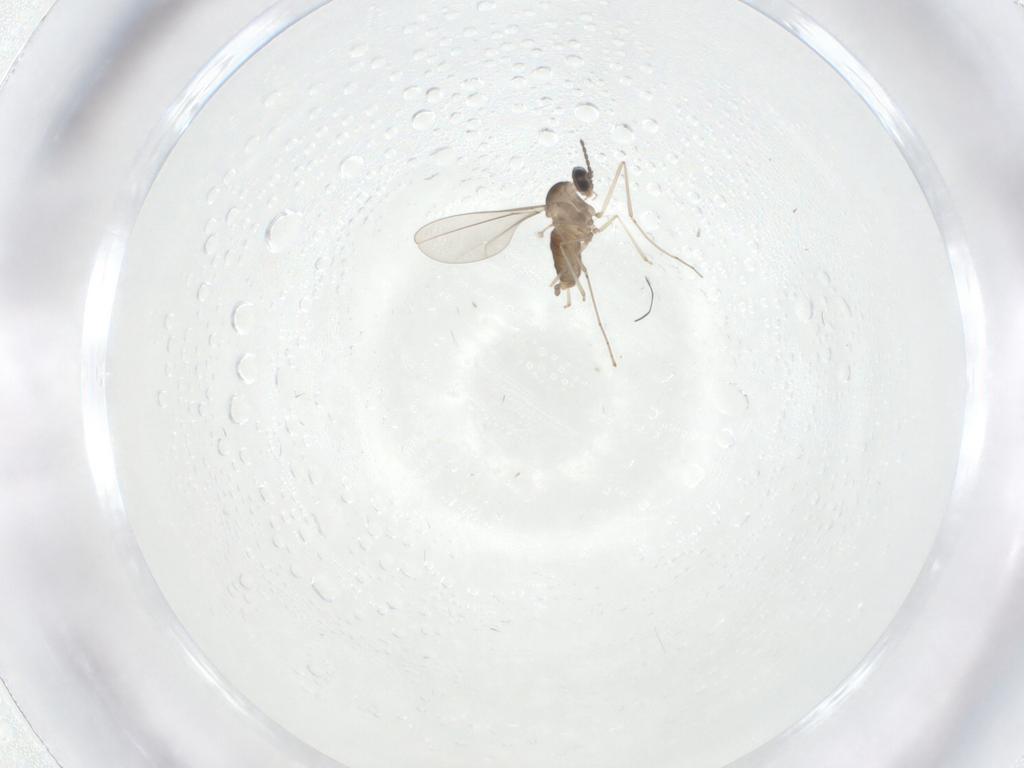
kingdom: Animalia
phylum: Arthropoda
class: Insecta
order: Diptera
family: Cecidomyiidae
